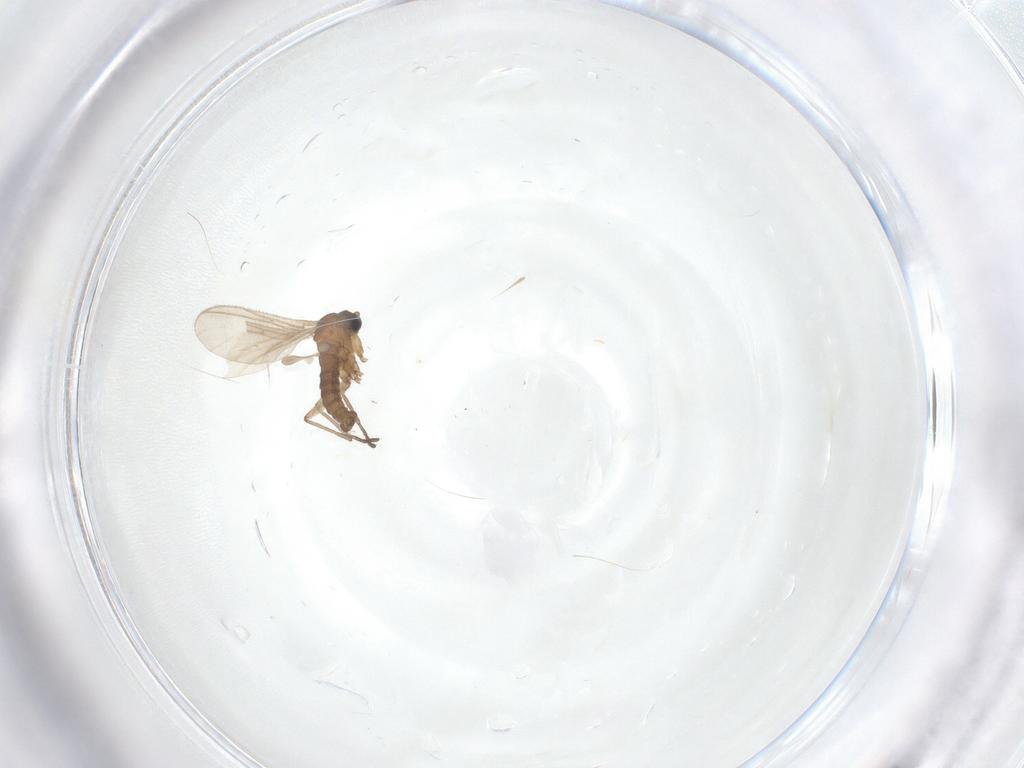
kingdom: Animalia
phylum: Arthropoda
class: Insecta
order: Diptera
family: Sciaridae
